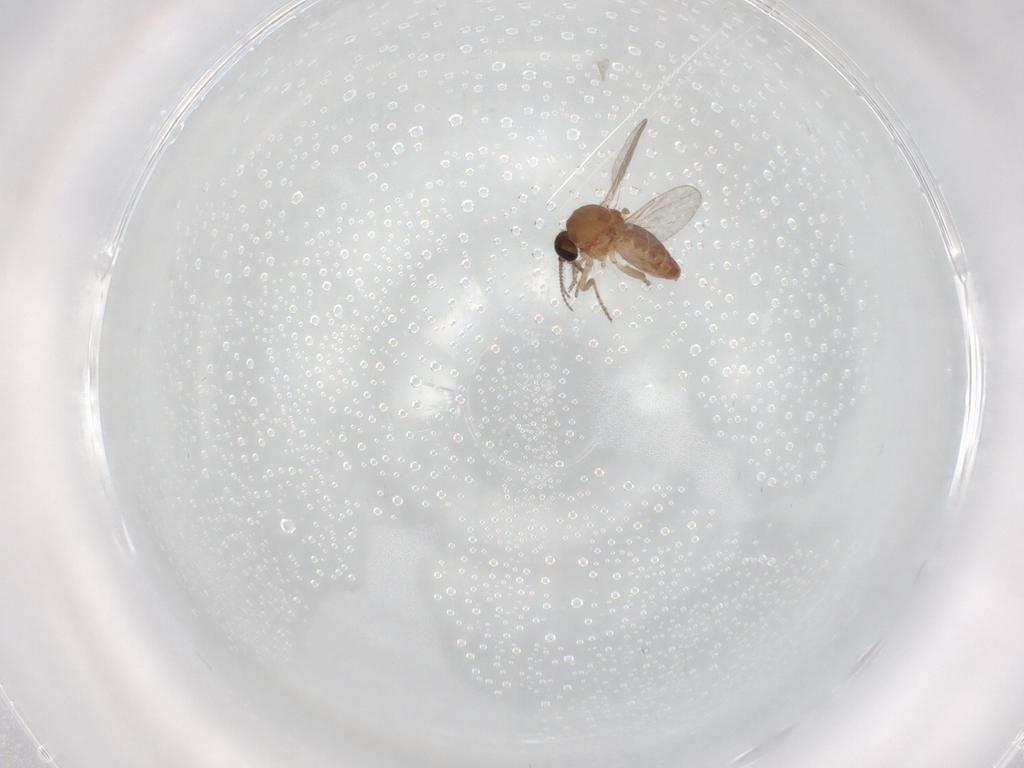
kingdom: Animalia
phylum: Arthropoda
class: Insecta
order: Diptera
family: Ceratopogonidae
